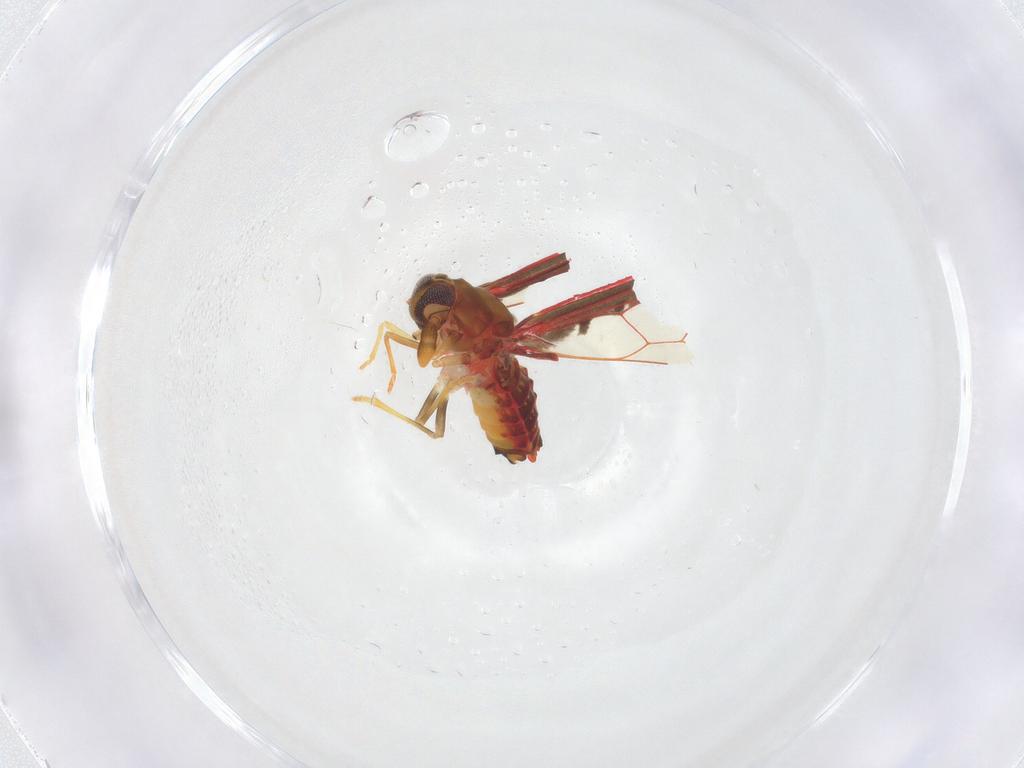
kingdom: Animalia
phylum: Arthropoda
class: Insecta
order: Hemiptera
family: Derbidae
